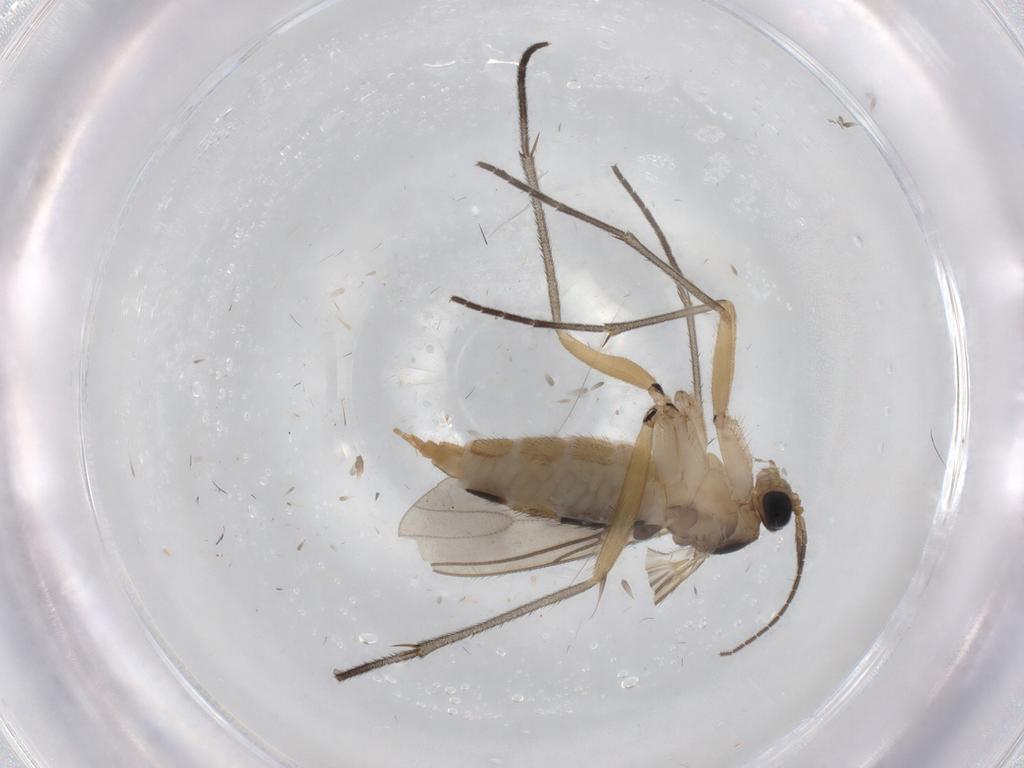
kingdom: Animalia
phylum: Arthropoda
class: Insecta
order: Diptera
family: Sciaridae
